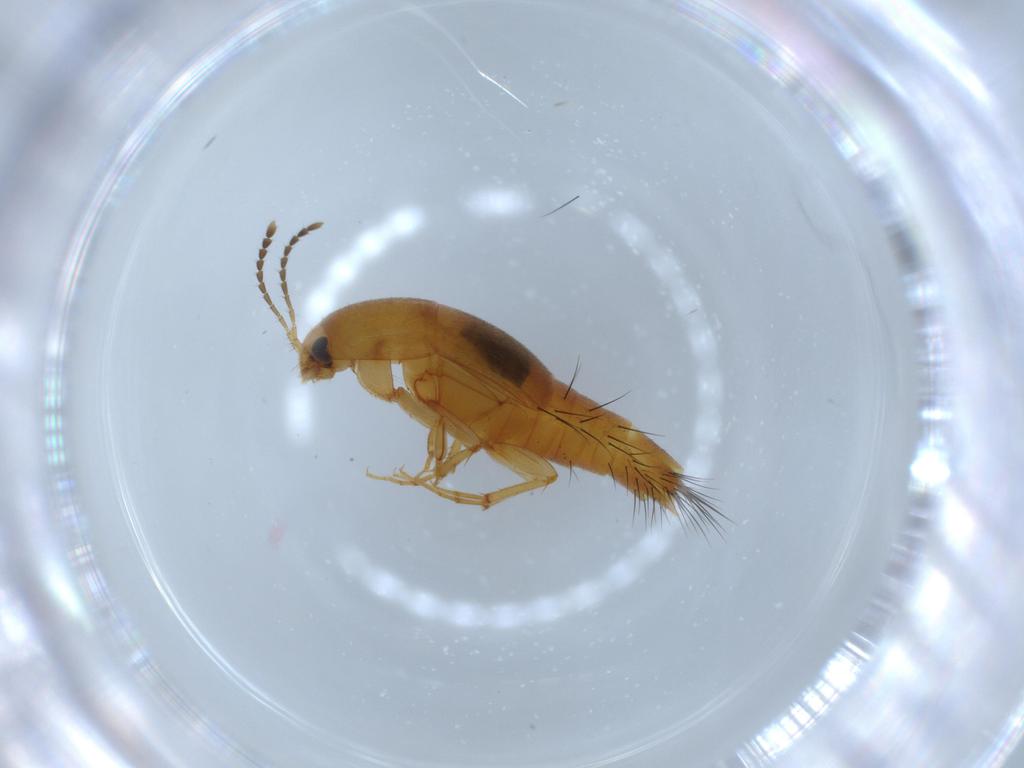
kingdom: Animalia
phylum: Arthropoda
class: Insecta
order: Coleoptera
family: Staphylinidae
